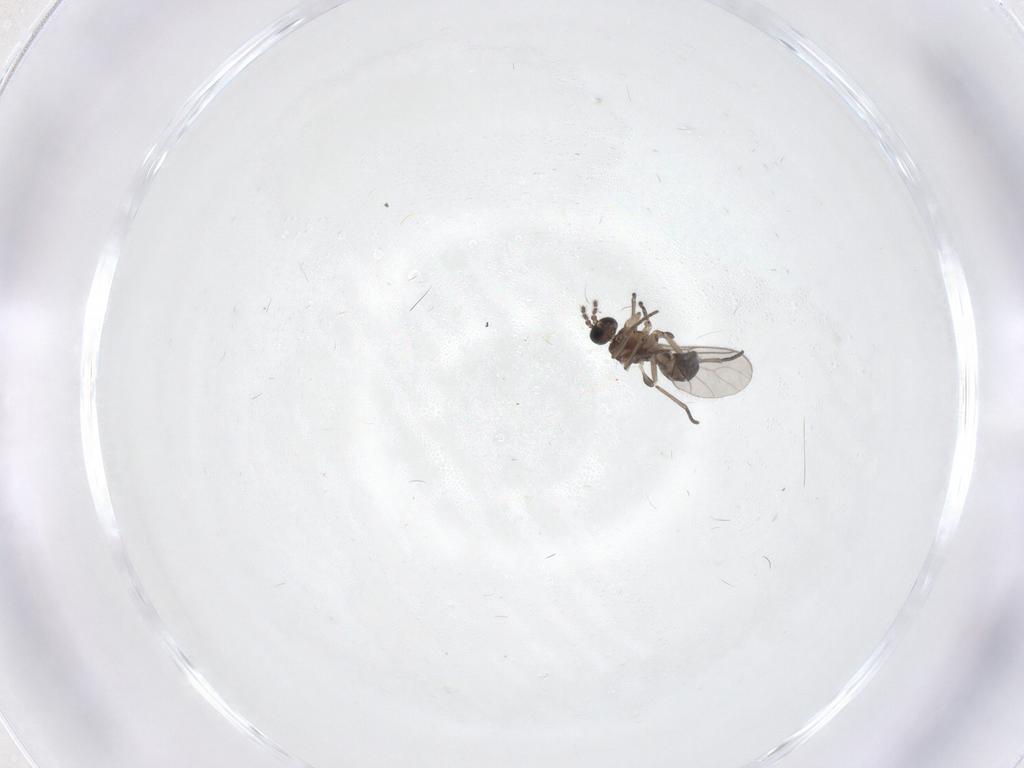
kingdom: Animalia
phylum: Arthropoda
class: Insecta
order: Diptera
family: Sciaridae
